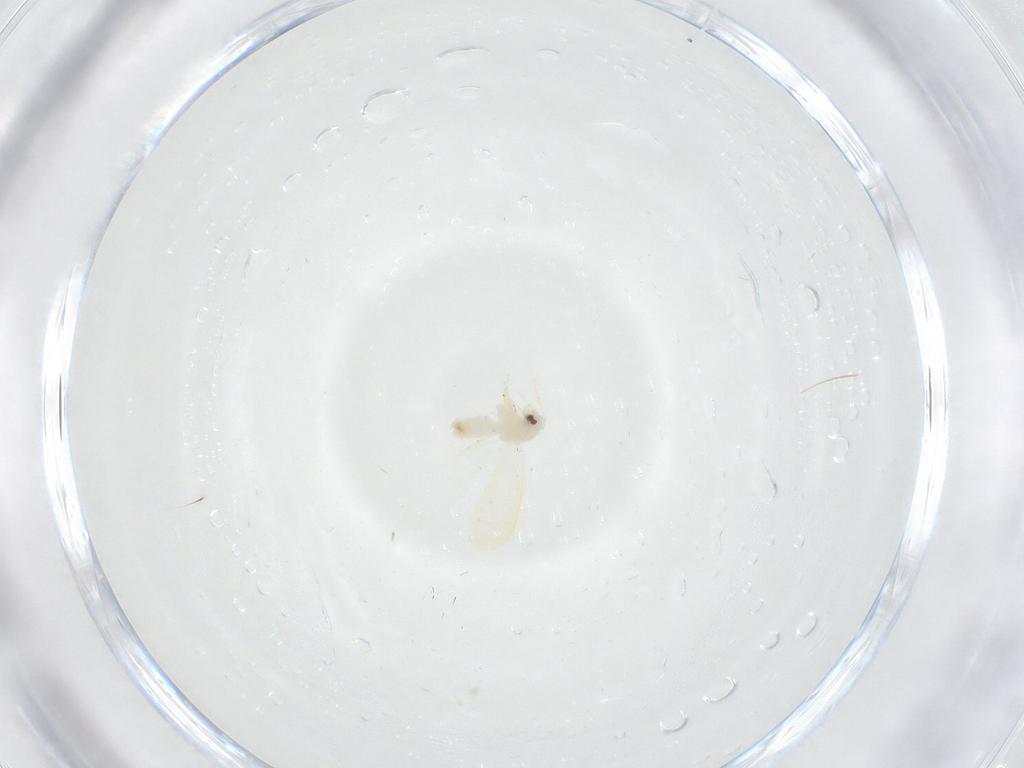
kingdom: Animalia
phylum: Arthropoda
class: Insecta
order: Hemiptera
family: Aleyrodidae
